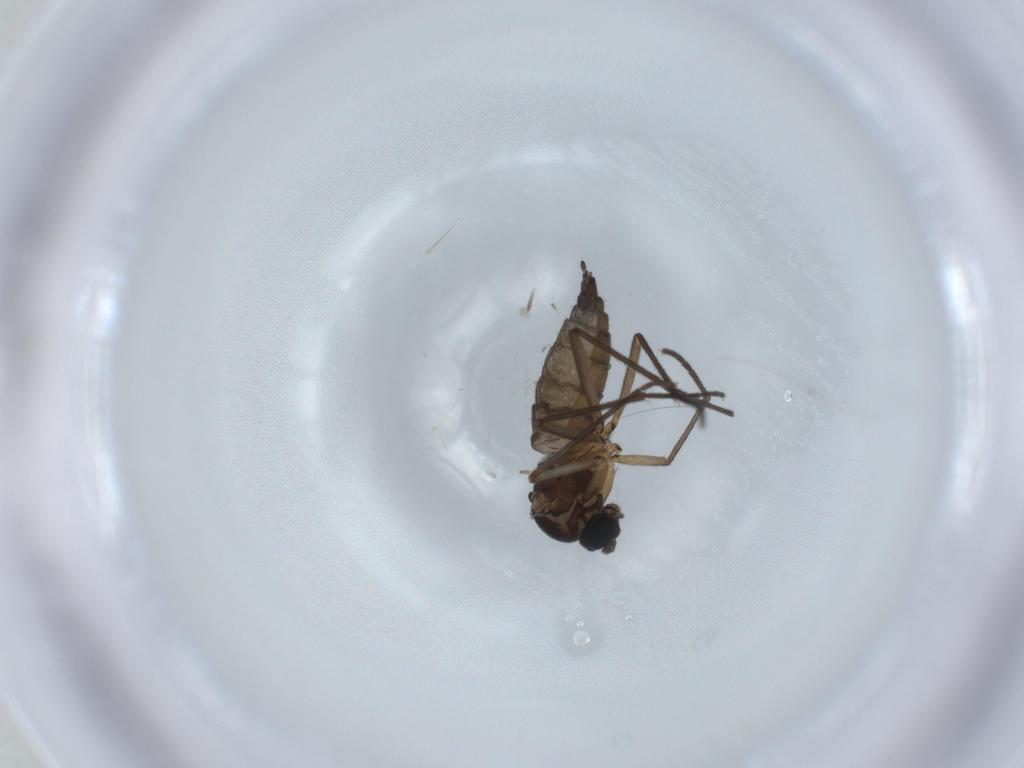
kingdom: Animalia
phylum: Arthropoda
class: Insecta
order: Diptera
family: Sciaridae
